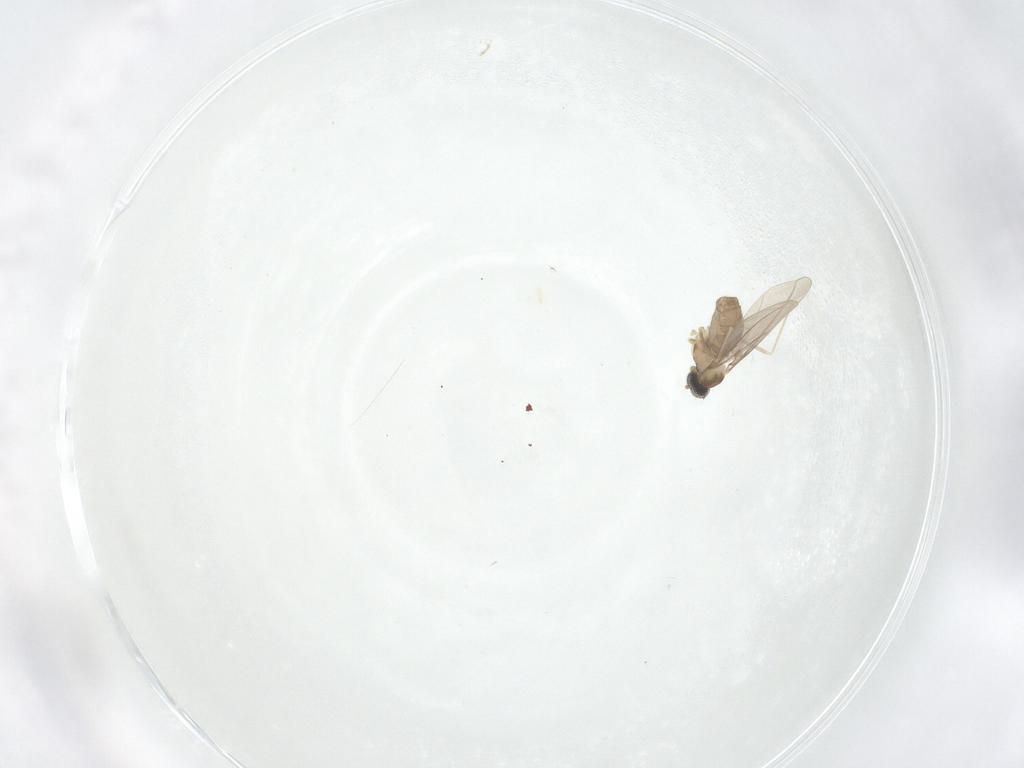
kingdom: Animalia
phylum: Arthropoda
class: Insecta
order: Diptera
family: Cecidomyiidae
